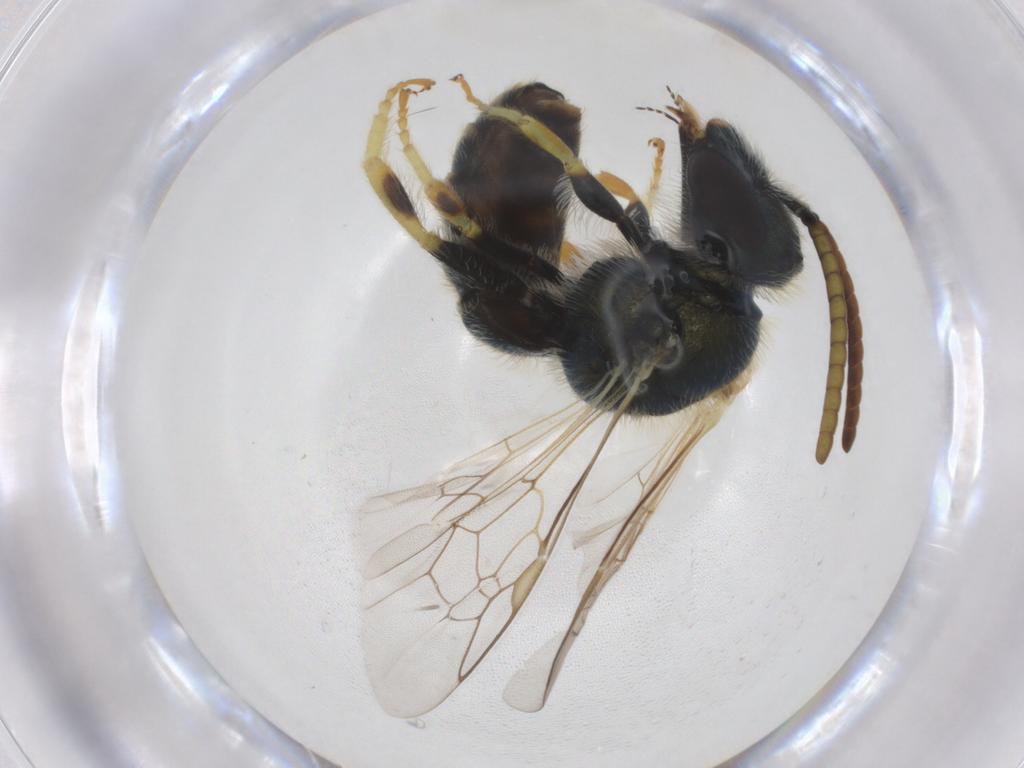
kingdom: Animalia
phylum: Arthropoda
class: Insecta
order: Hymenoptera
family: Halictidae
